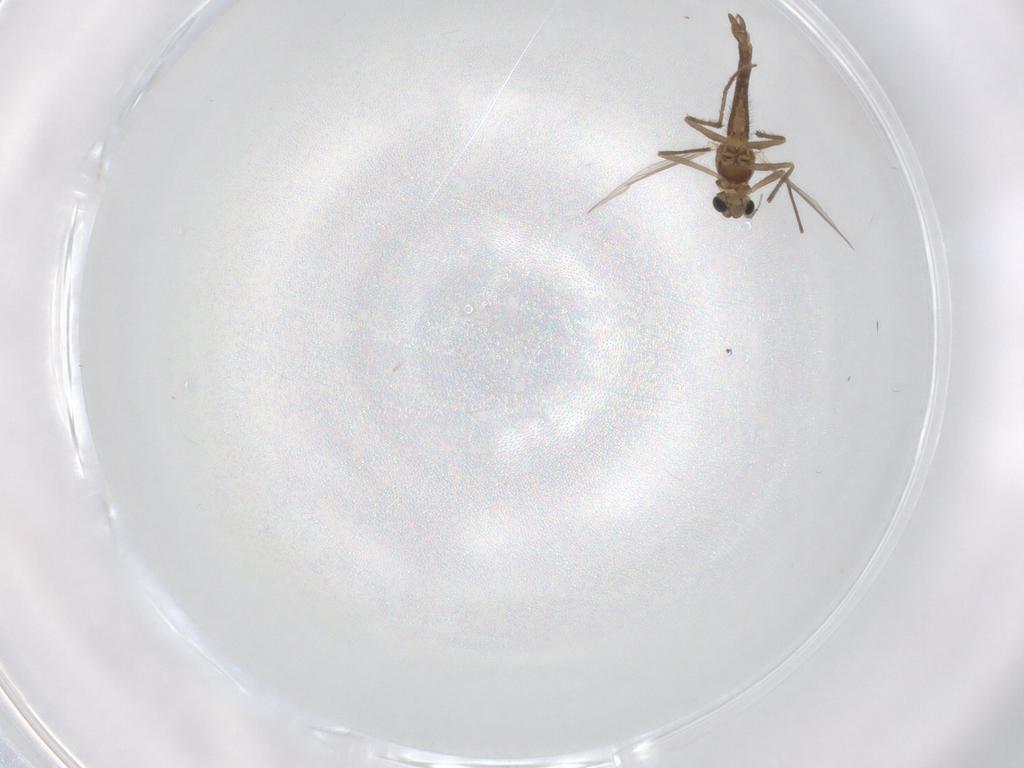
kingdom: Animalia
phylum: Arthropoda
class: Insecta
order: Diptera
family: Chironomidae
